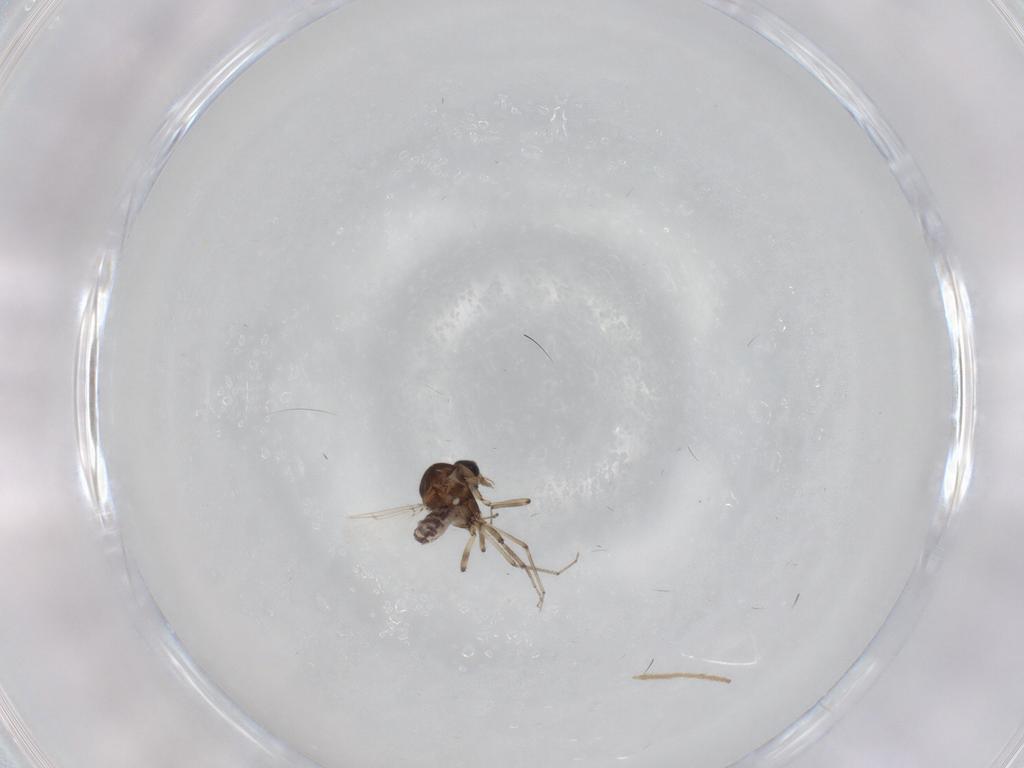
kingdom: Animalia
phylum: Arthropoda
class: Insecta
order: Diptera
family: Ceratopogonidae
